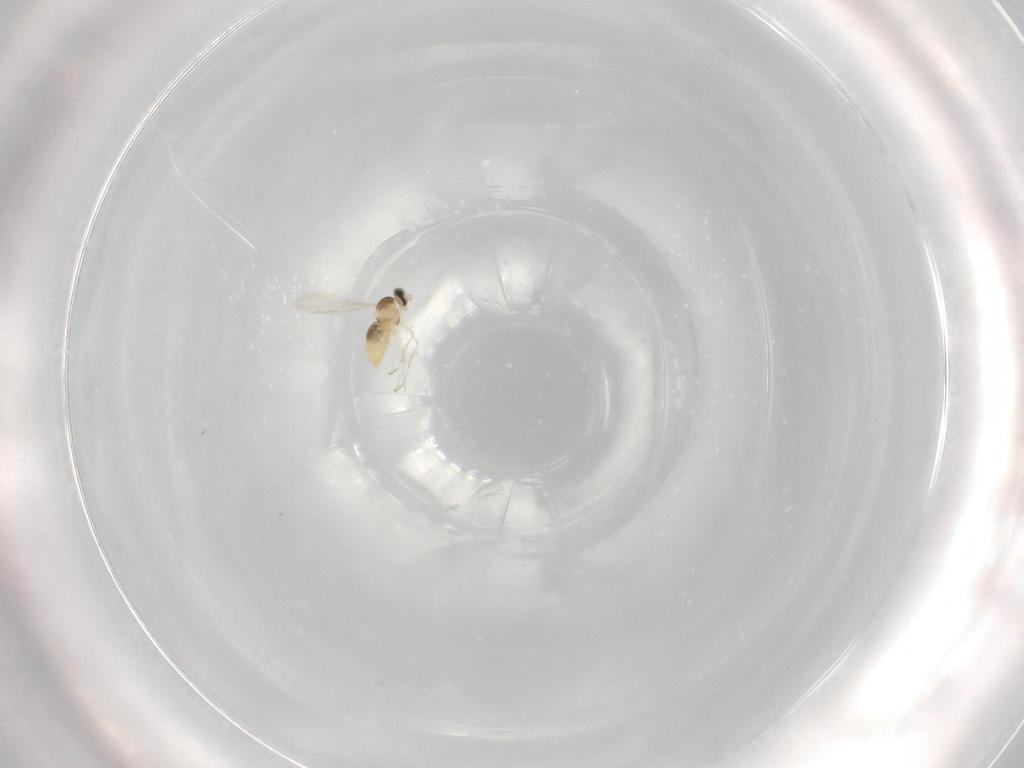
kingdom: Animalia
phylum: Arthropoda
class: Insecta
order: Diptera
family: Cecidomyiidae
